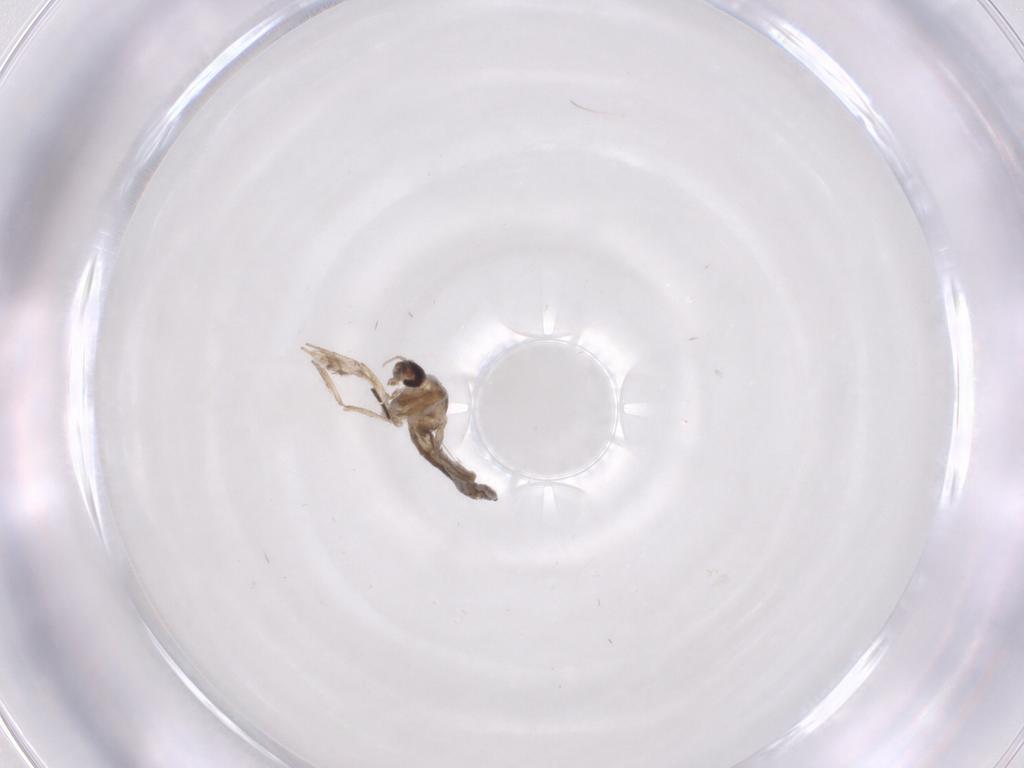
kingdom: Animalia
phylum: Arthropoda
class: Insecta
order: Diptera
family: Ceratopogonidae
